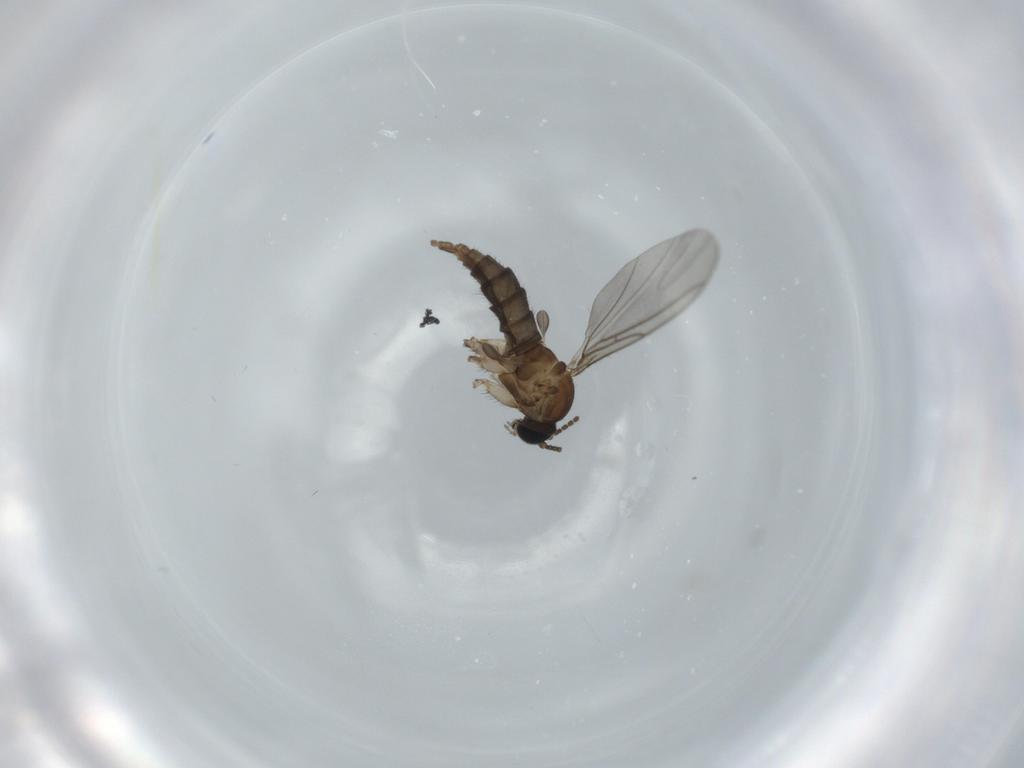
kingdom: Animalia
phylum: Arthropoda
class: Insecta
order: Diptera
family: Sciaridae
